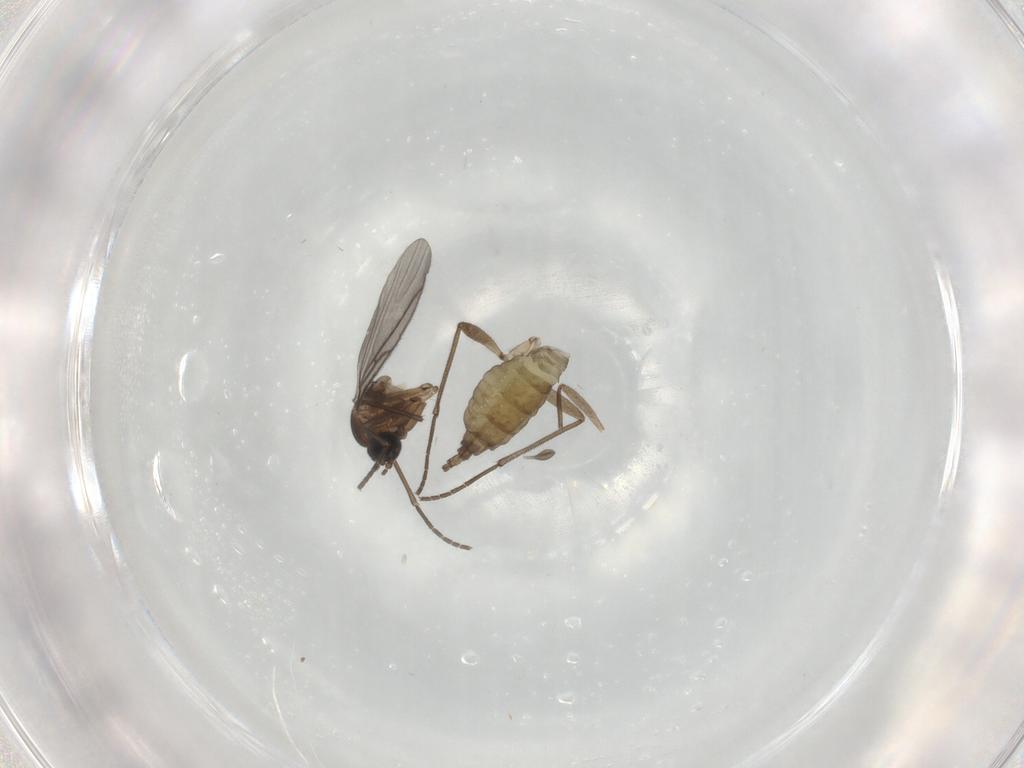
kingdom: Animalia
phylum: Arthropoda
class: Insecta
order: Diptera
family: Sciaridae
